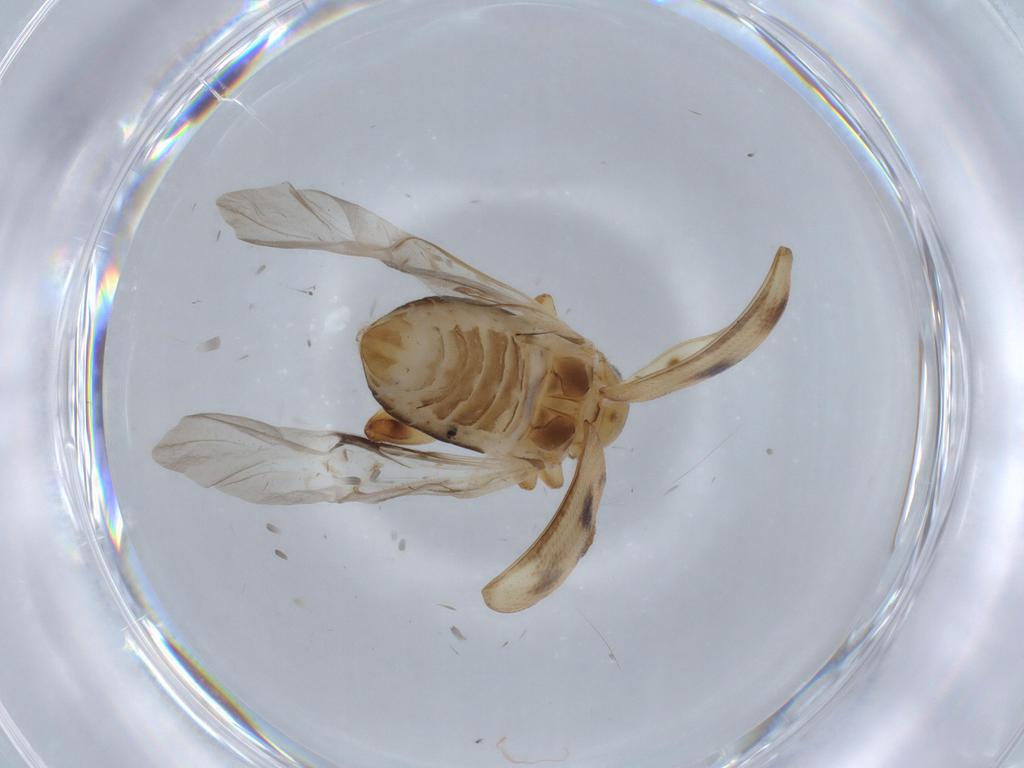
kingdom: Animalia
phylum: Arthropoda
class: Insecta
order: Coleoptera
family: Chrysomelidae
